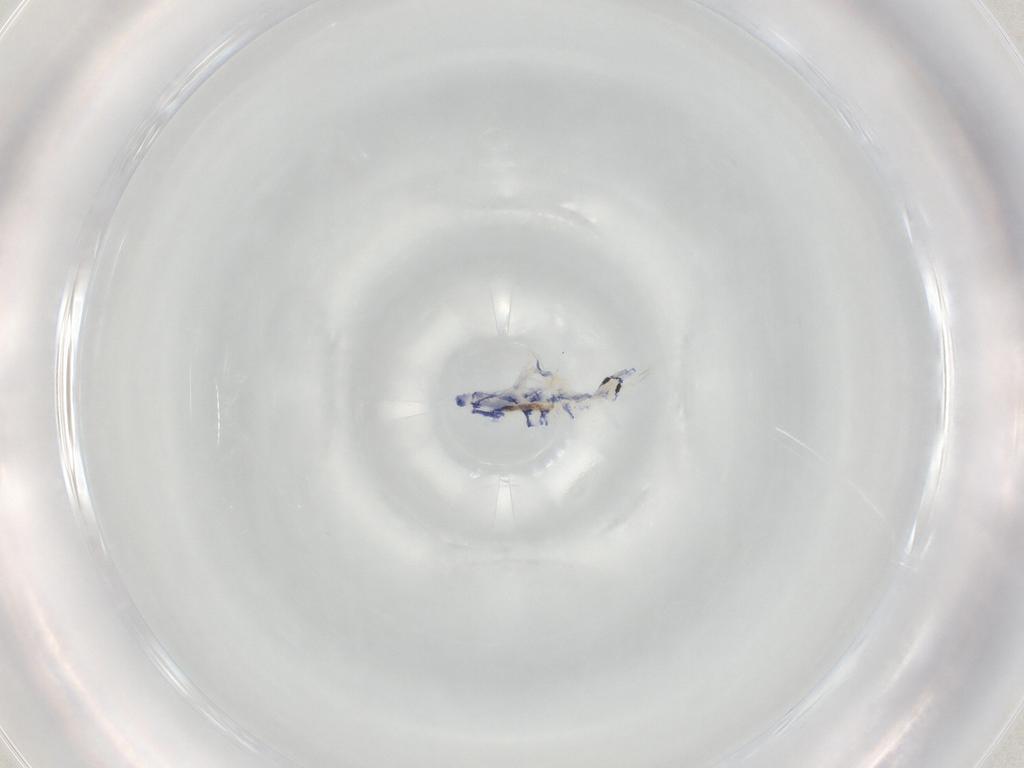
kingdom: Animalia
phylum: Arthropoda
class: Collembola
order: Entomobryomorpha
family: Entomobryidae
